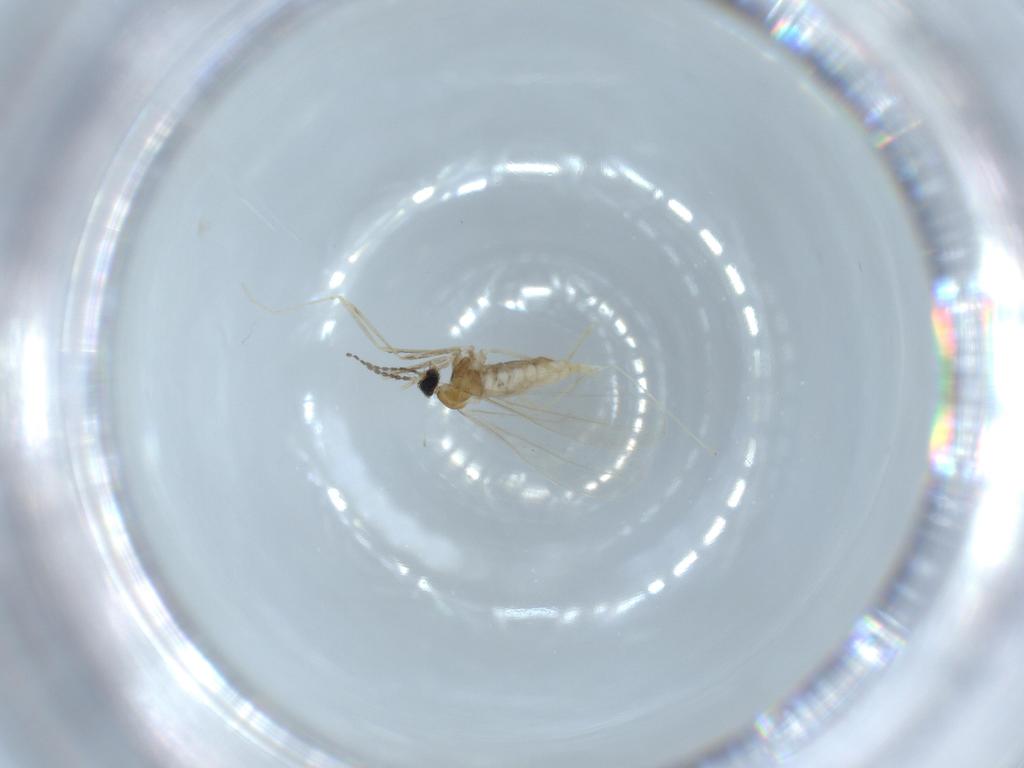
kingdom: Animalia
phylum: Arthropoda
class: Insecta
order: Diptera
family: Cecidomyiidae
